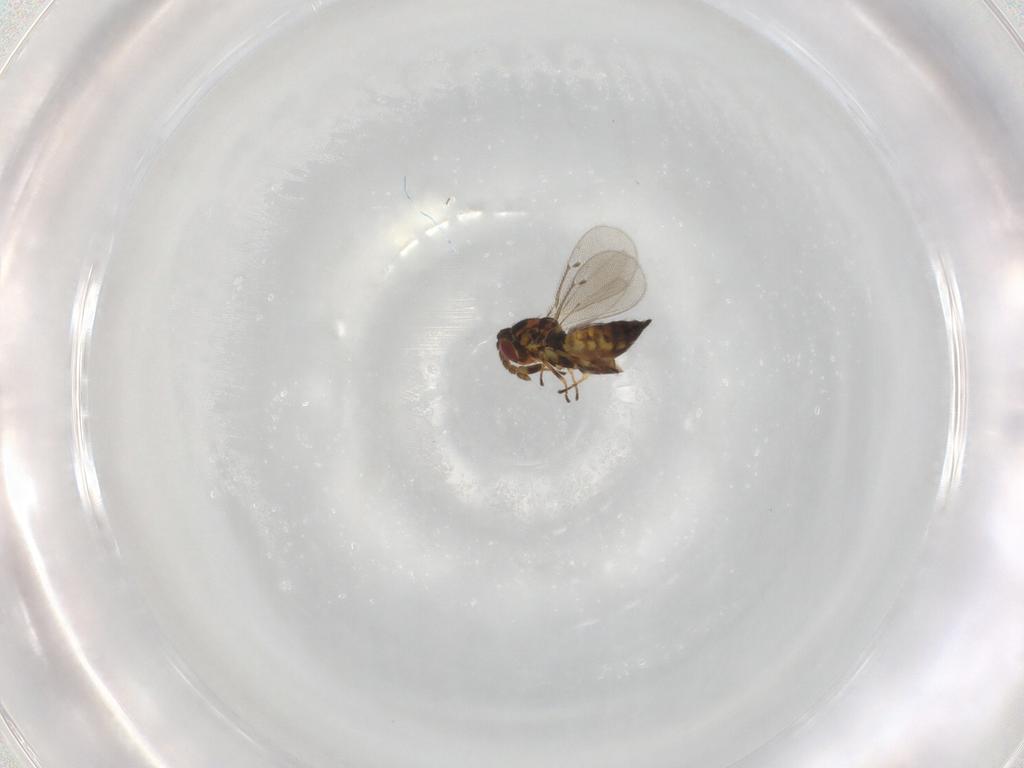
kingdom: Animalia
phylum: Arthropoda
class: Insecta
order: Hymenoptera
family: Eulophidae
